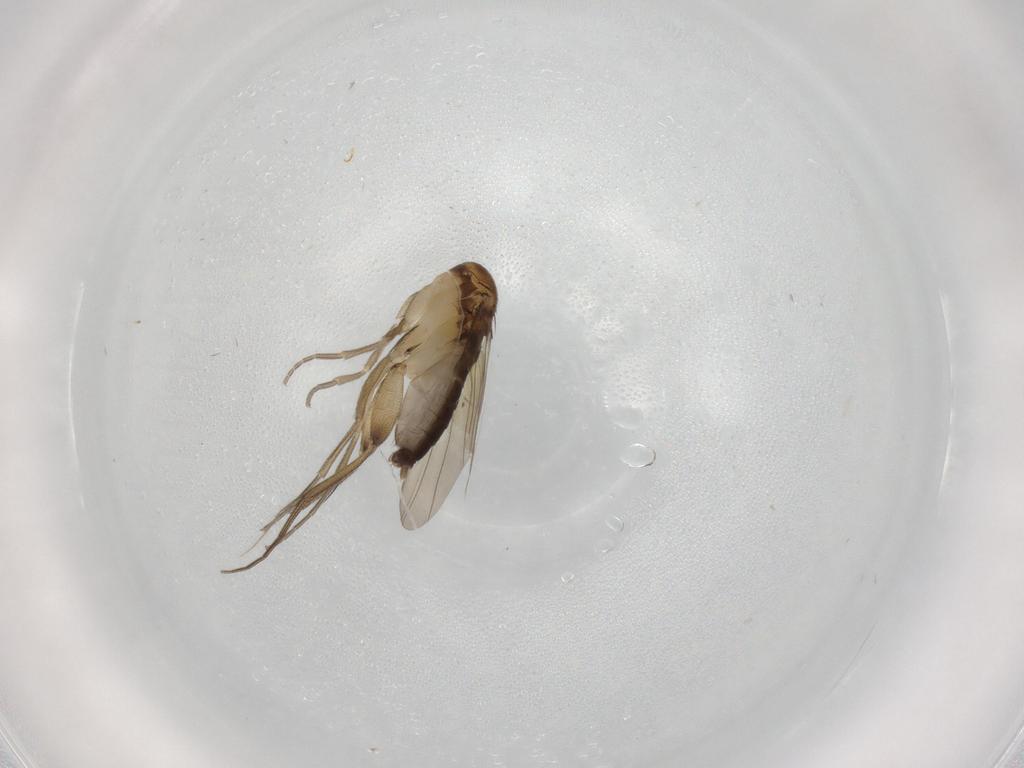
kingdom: Animalia
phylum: Arthropoda
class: Insecta
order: Diptera
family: Phoridae
